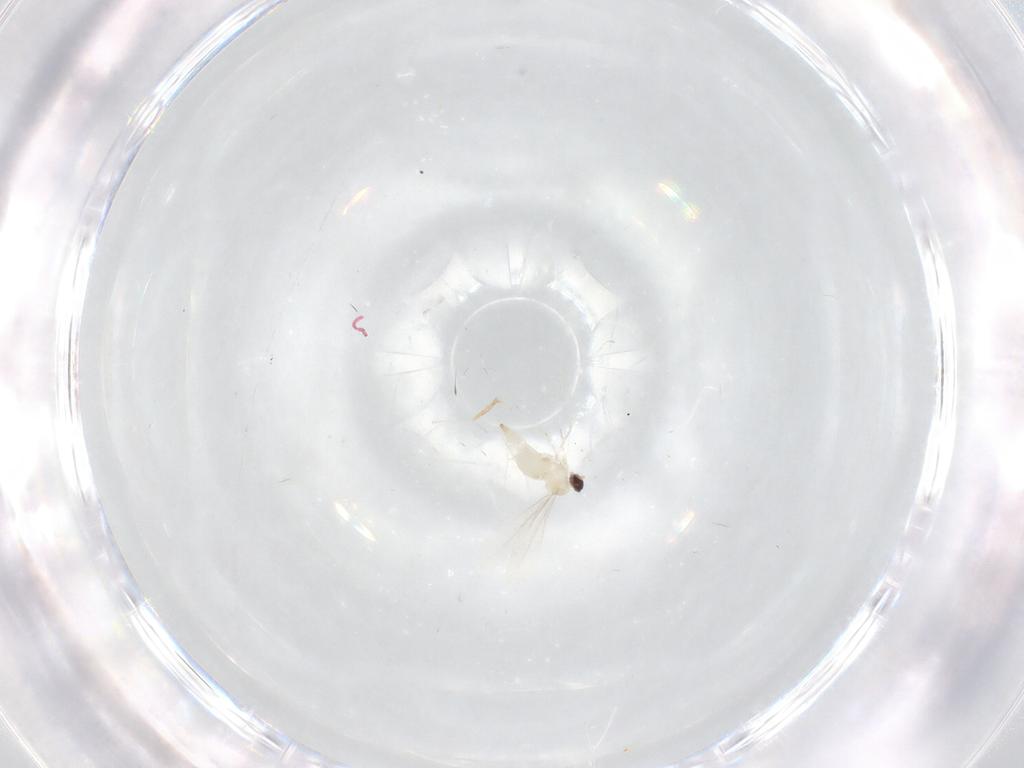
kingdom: Animalia
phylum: Arthropoda
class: Insecta
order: Diptera
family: Cecidomyiidae
